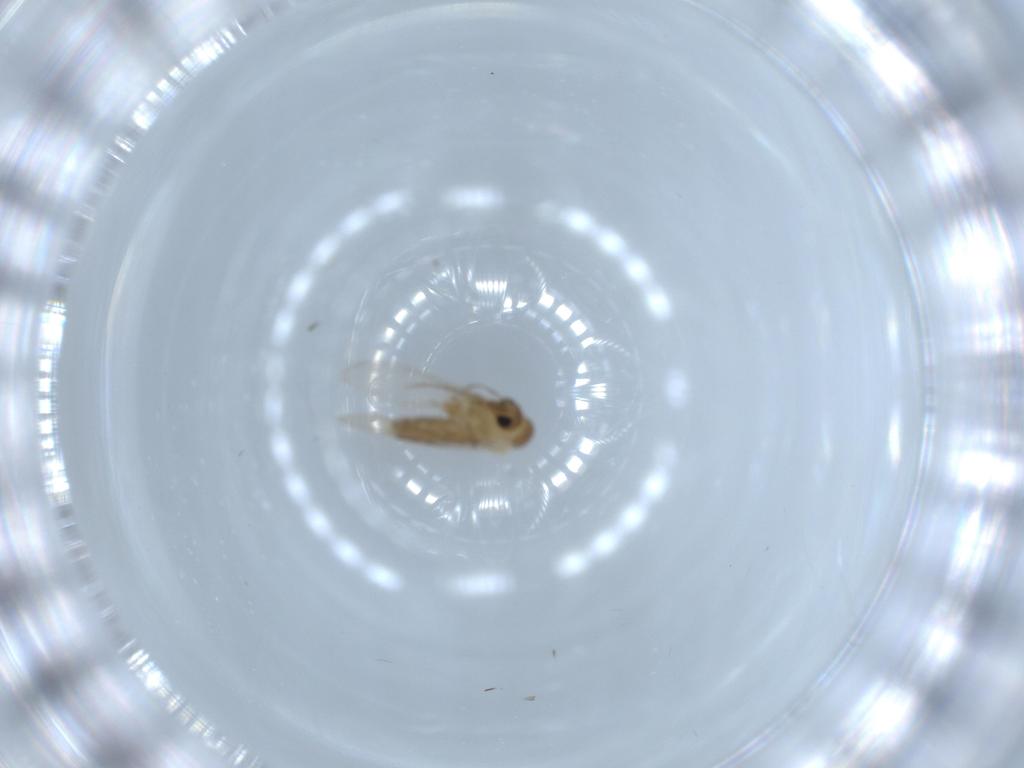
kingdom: Animalia
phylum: Arthropoda
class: Insecta
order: Diptera
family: Psychodidae
